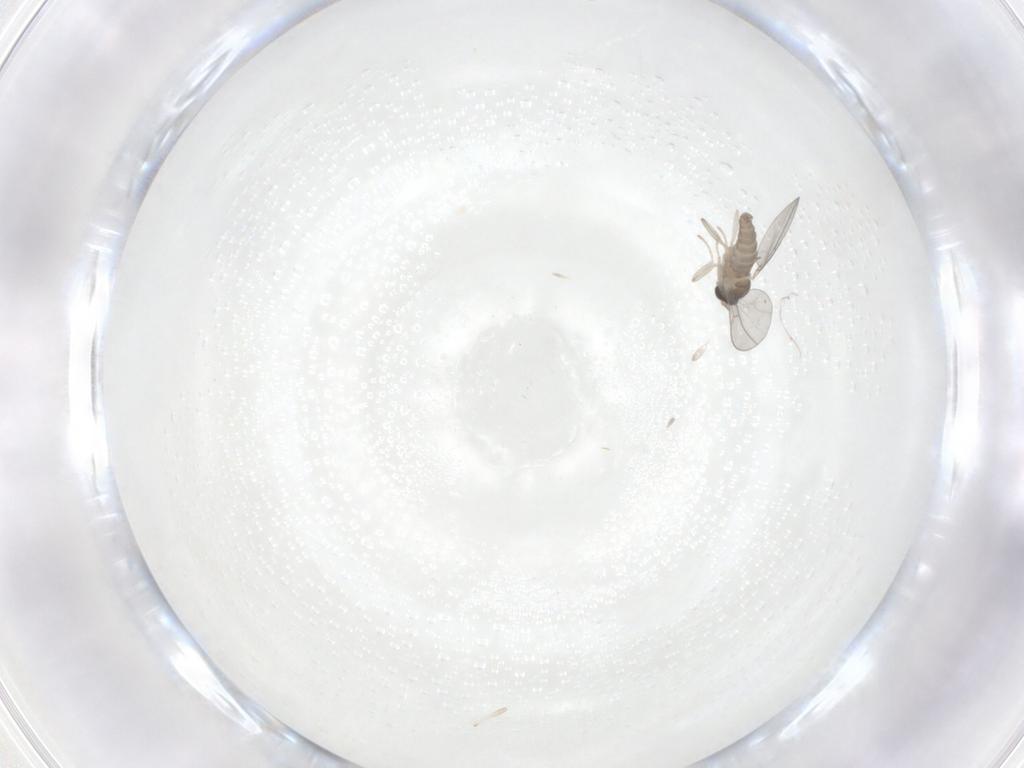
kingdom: Animalia
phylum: Arthropoda
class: Insecta
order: Diptera
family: Cecidomyiidae
